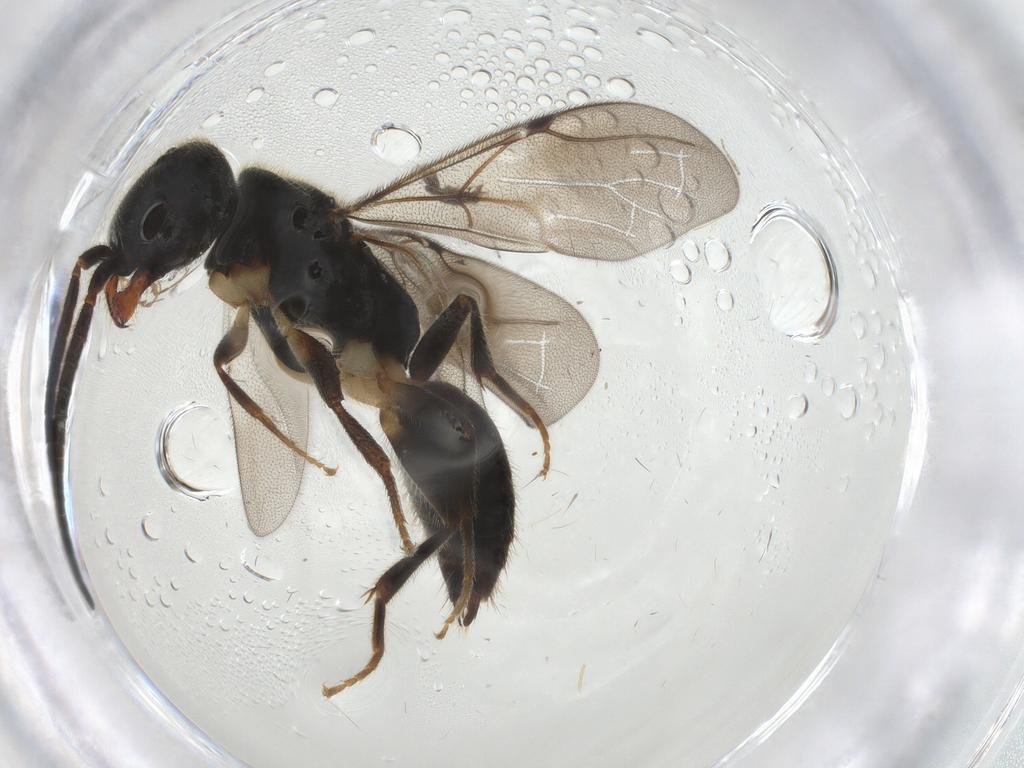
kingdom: Animalia
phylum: Arthropoda
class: Insecta
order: Hymenoptera
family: Bethylidae
